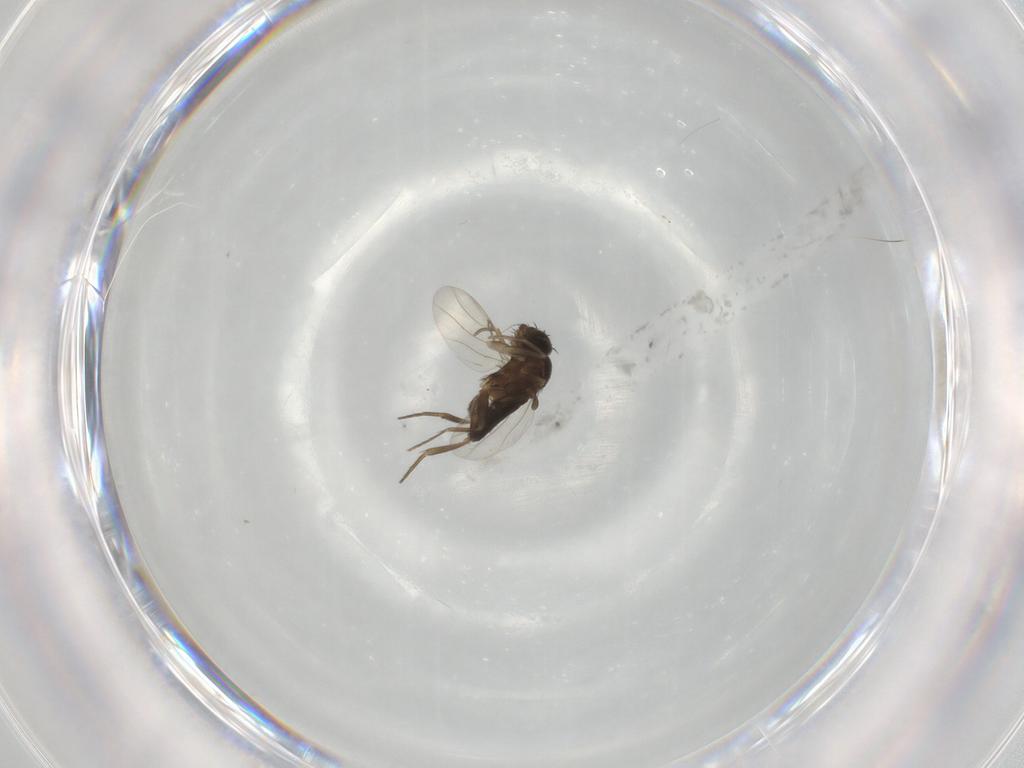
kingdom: Animalia
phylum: Arthropoda
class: Insecta
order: Diptera
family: Phoridae
